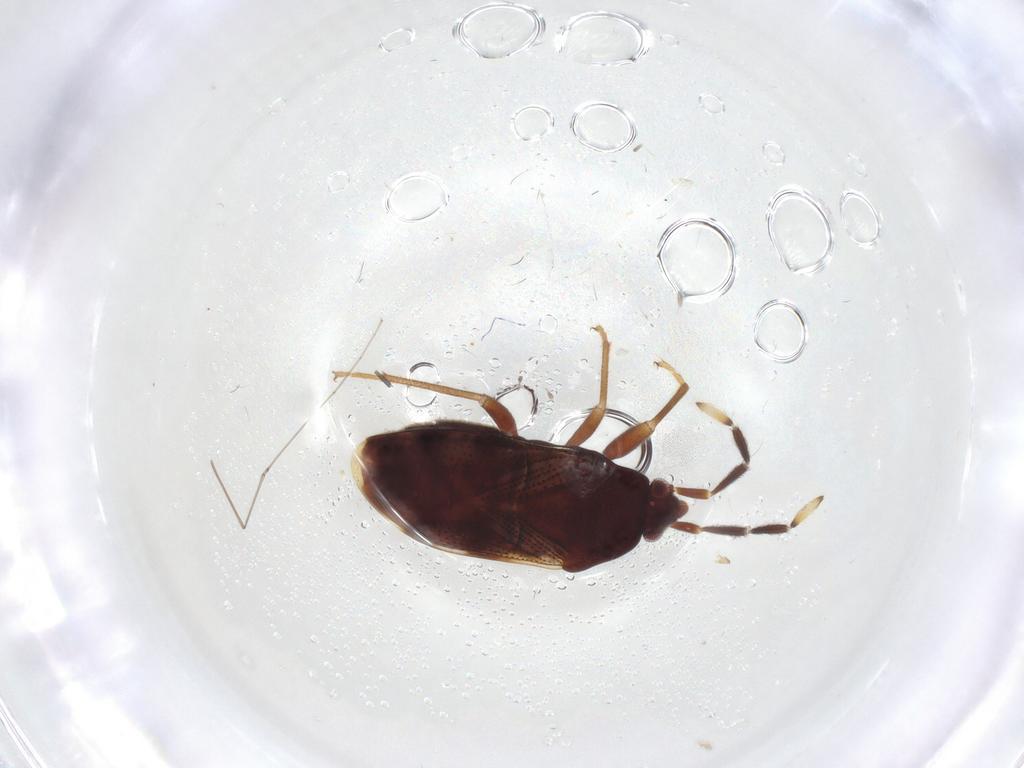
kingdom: Animalia
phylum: Arthropoda
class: Insecta
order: Hemiptera
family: Rhyparochromidae
